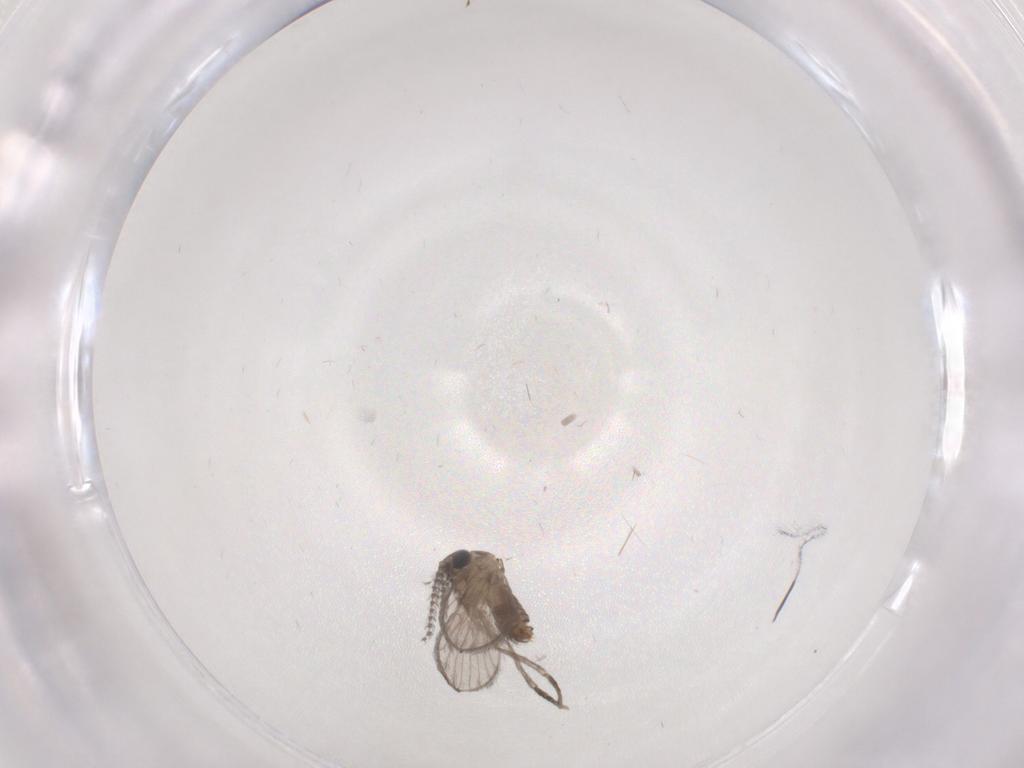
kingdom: Animalia
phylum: Arthropoda
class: Insecta
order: Diptera
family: Psychodidae
